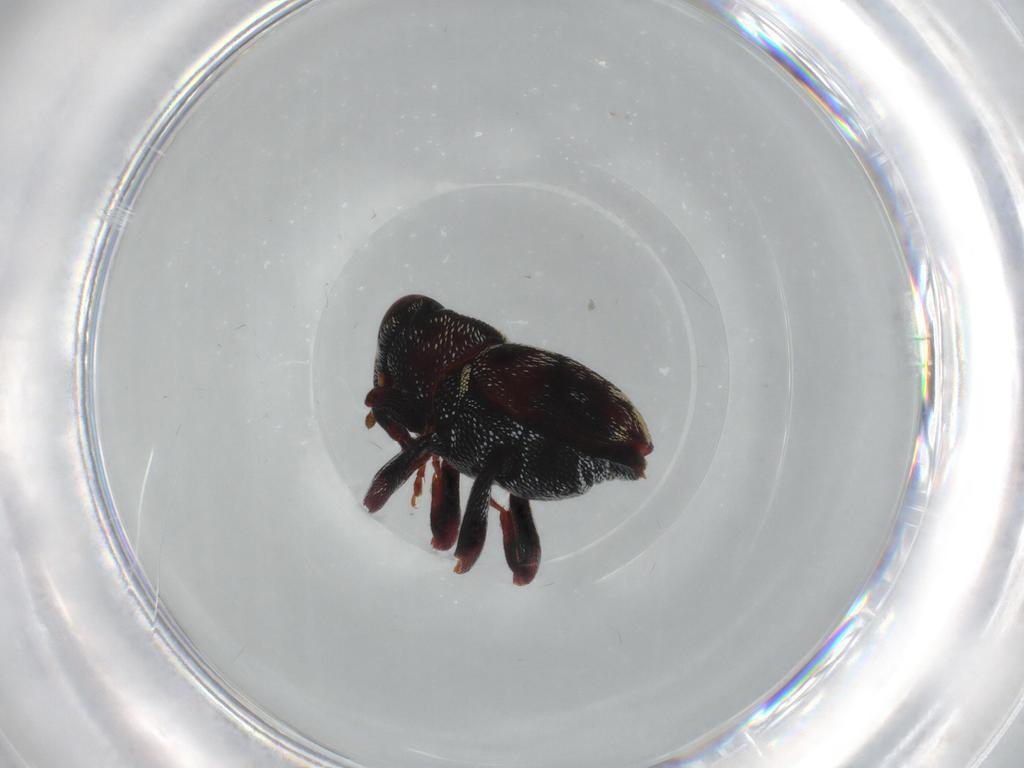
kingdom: Animalia
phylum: Arthropoda
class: Insecta
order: Coleoptera
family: Curculionidae
